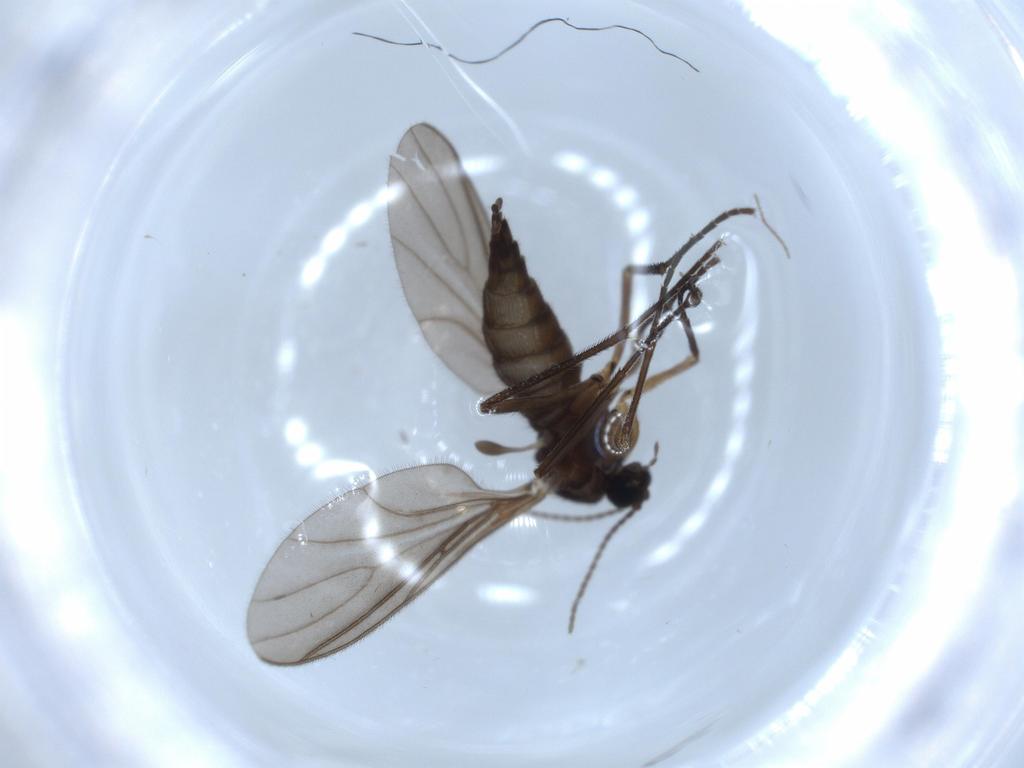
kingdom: Animalia
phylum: Arthropoda
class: Insecta
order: Diptera
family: Sciaridae
